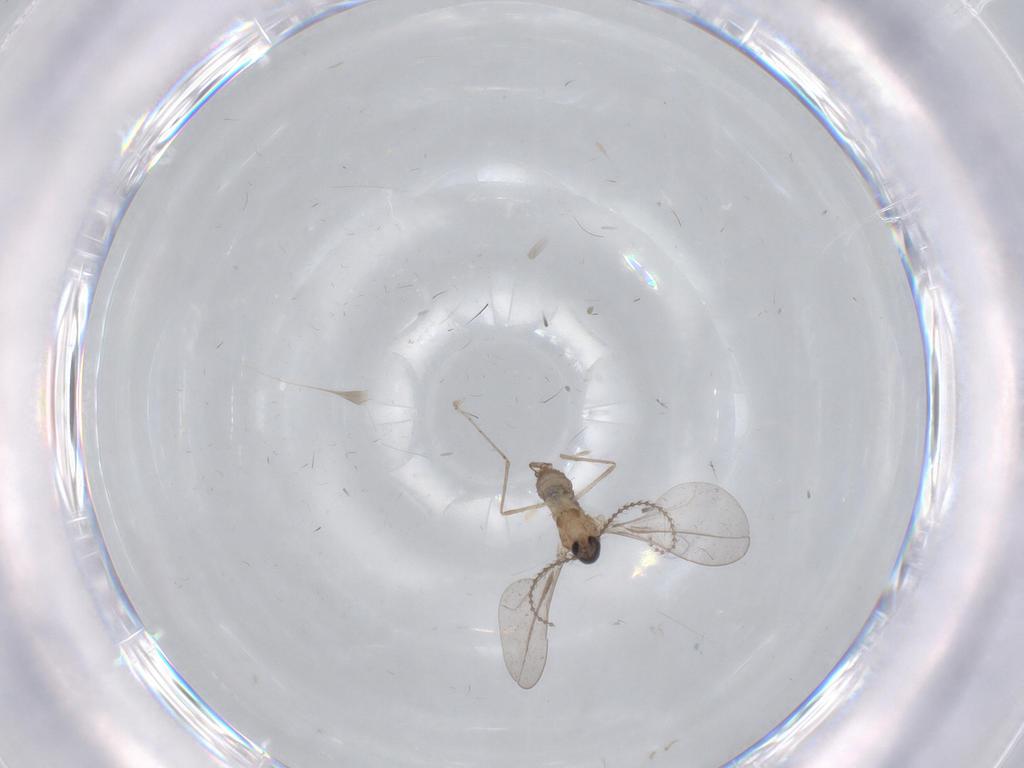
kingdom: Animalia
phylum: Arthropoda
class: Insecta
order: Diptera
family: Cecidomyiidae
